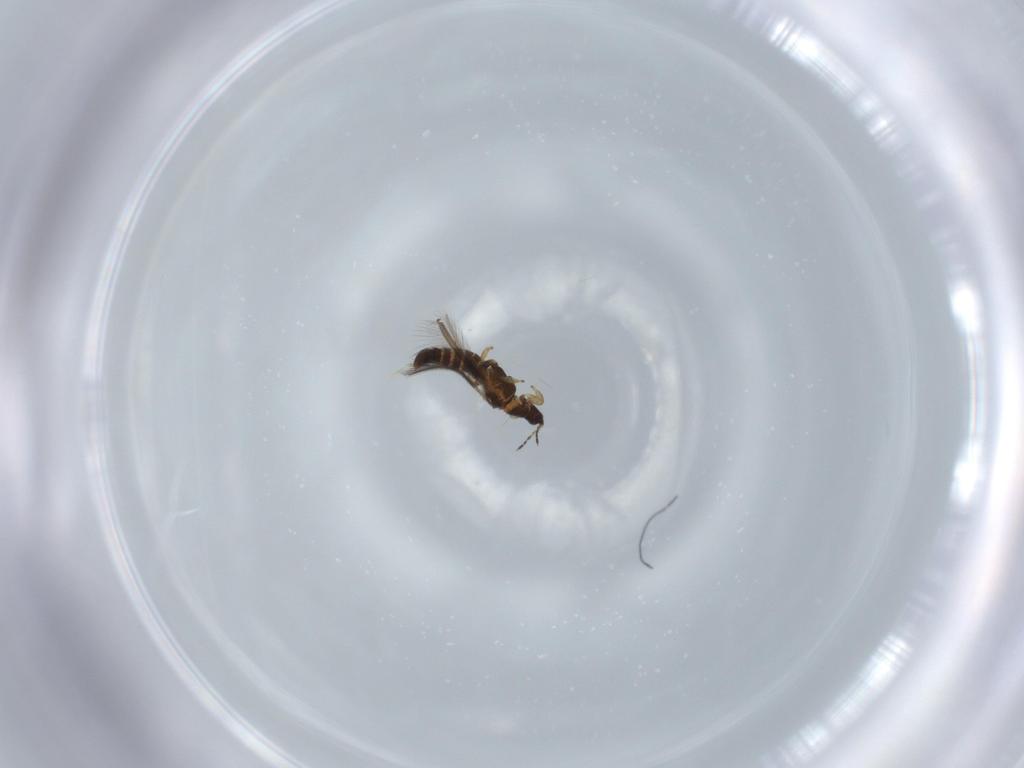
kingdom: Animalia
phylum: Arthropoda
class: Insecta
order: Thysanoptera
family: Thripidae
